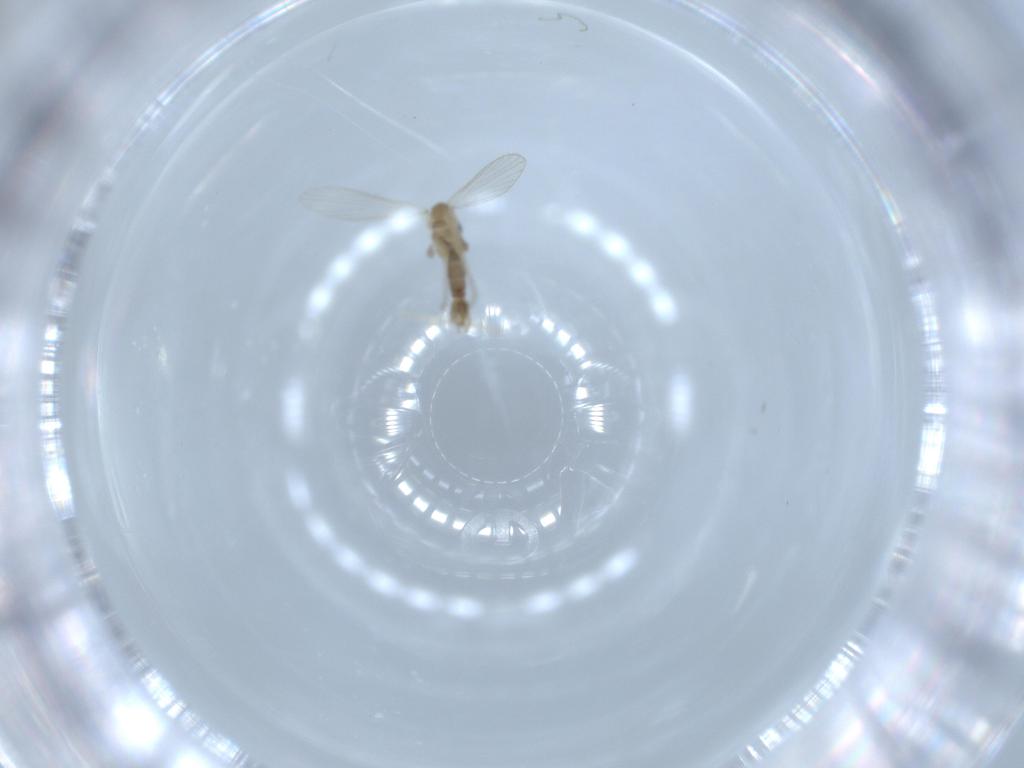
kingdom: Animalia
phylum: Arthropoda
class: Insecta
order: Diptera
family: Psychodidae
